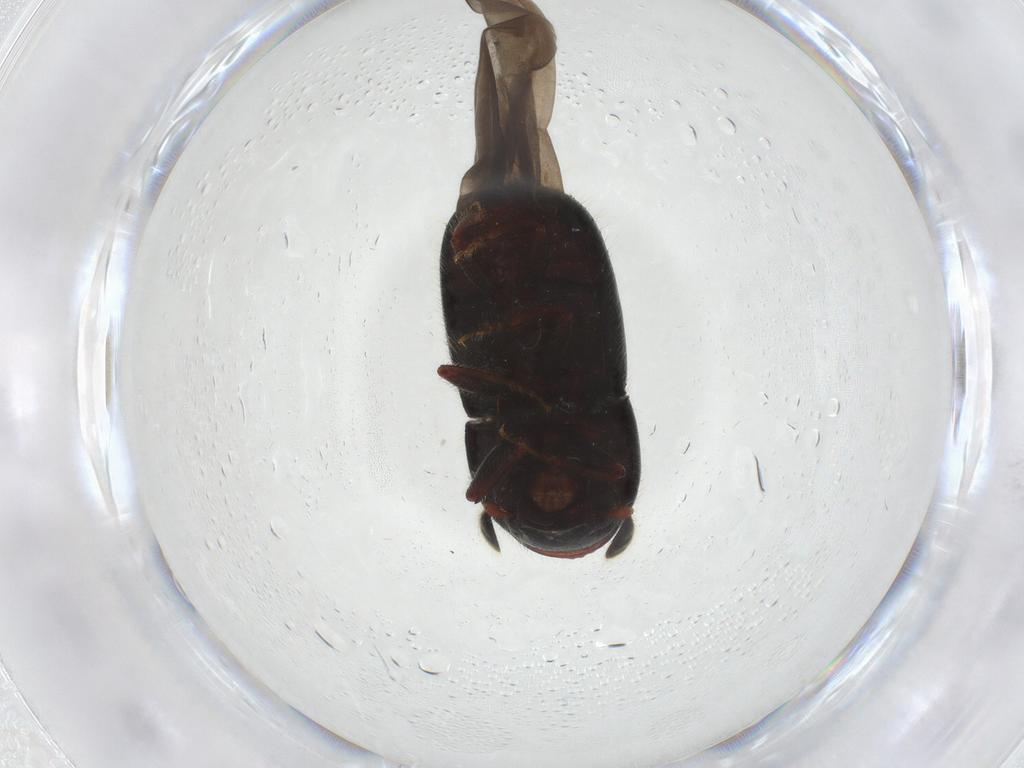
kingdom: Animalia
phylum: Arthropoda
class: Insecta
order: Coleoptera
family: Curculionidae
